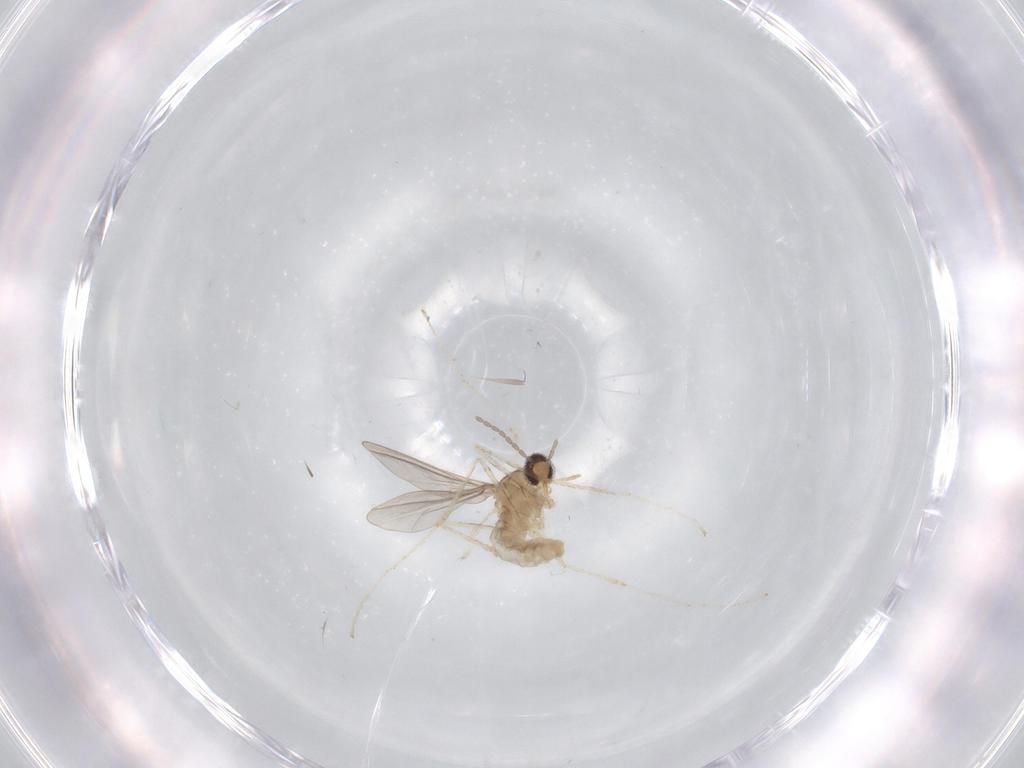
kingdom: Animalia
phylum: Arthropoda
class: Insecta
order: Diptera
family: Cecidomyiidae
